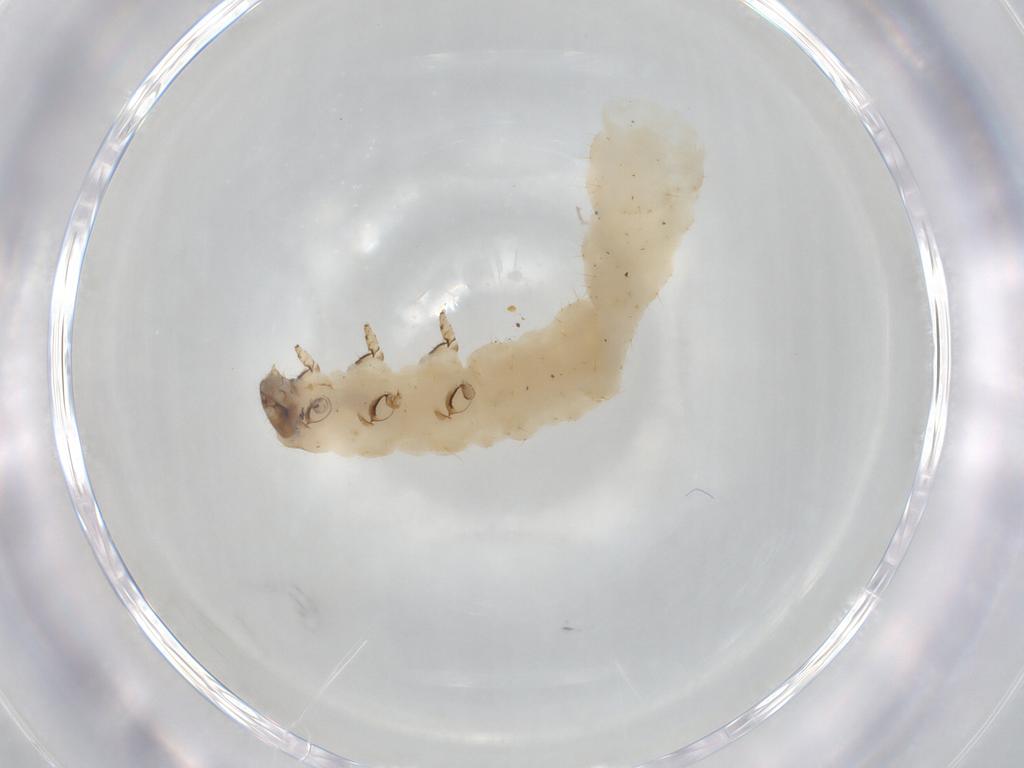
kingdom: Animalia
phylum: Arthropoda
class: Insecta
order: Coleoptera
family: Chrysomelidae
